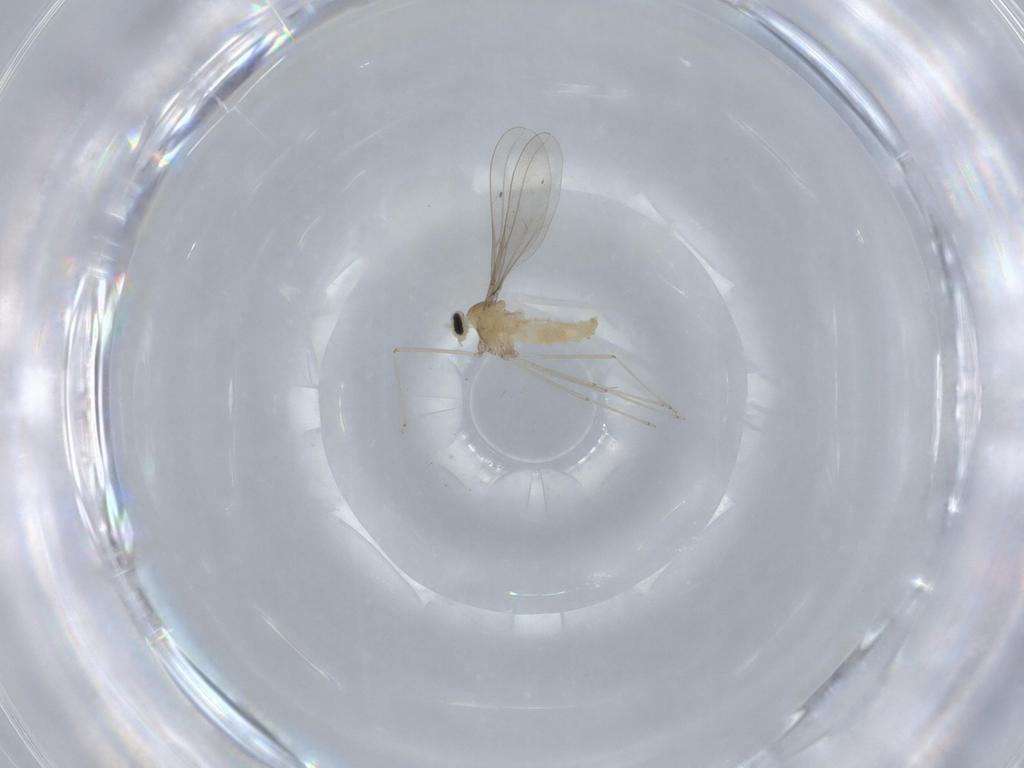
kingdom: Animalia
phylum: Arthropoda
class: Insecta
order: Diptera
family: Cecidomyiidae
